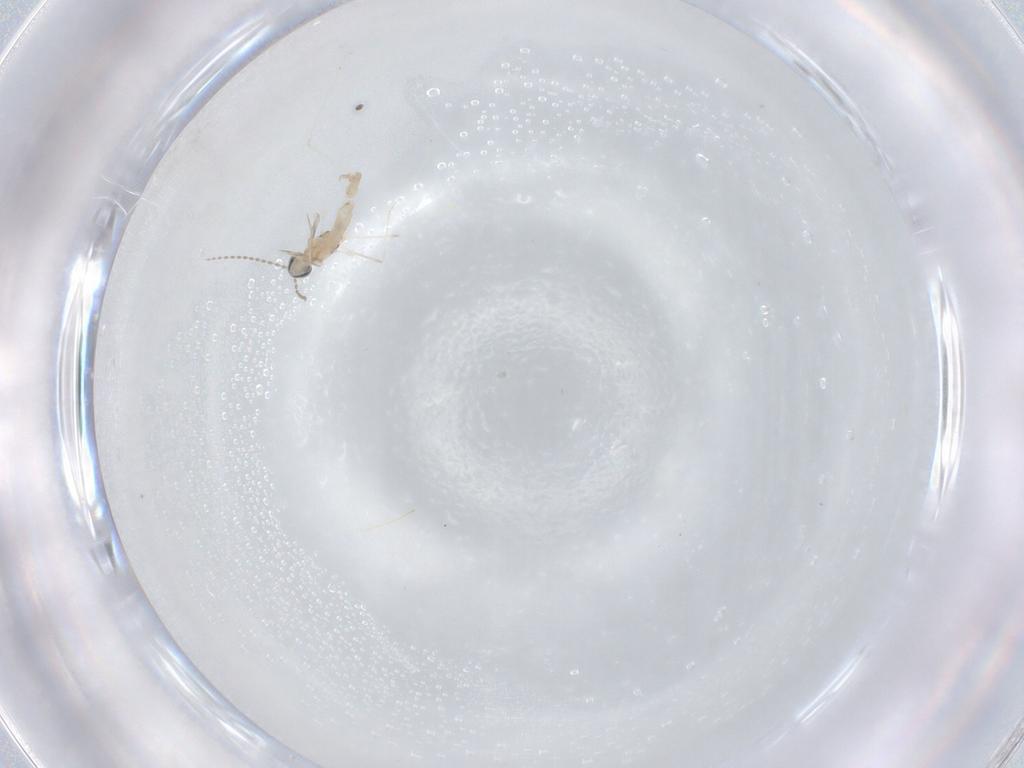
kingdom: Animalia
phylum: Arthropoda
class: Insecta
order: Diptera
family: Cecidomyiidae
